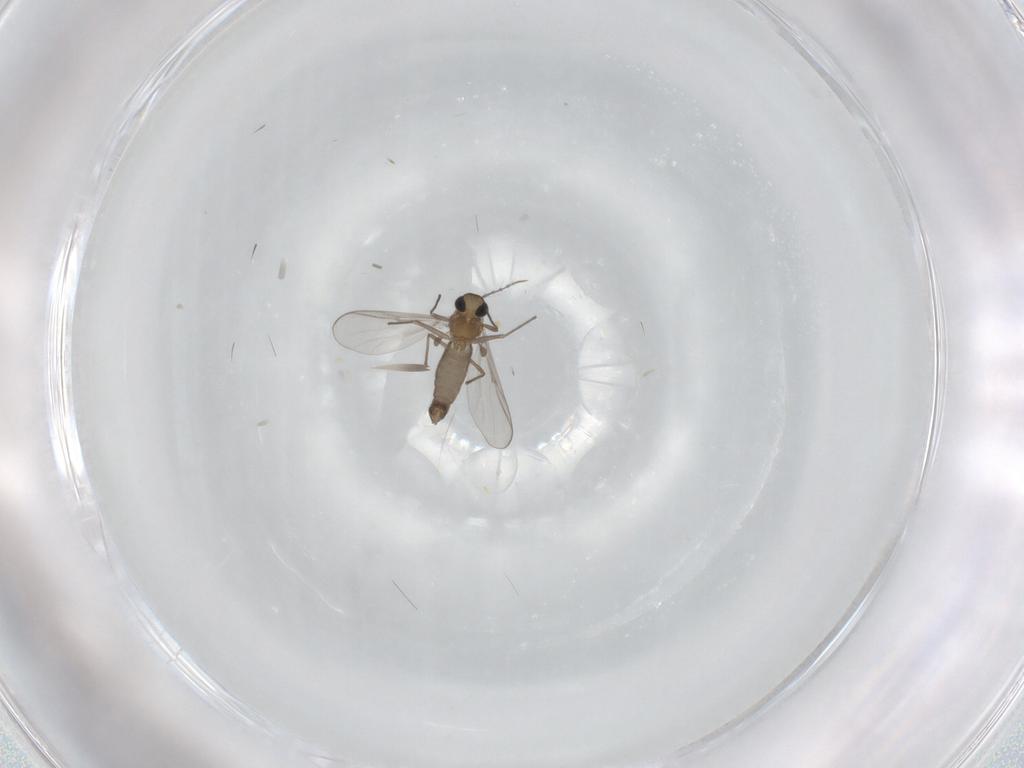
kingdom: Animalia
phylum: Arthropoda
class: Insecta
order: Diptera
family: Chironomidae
